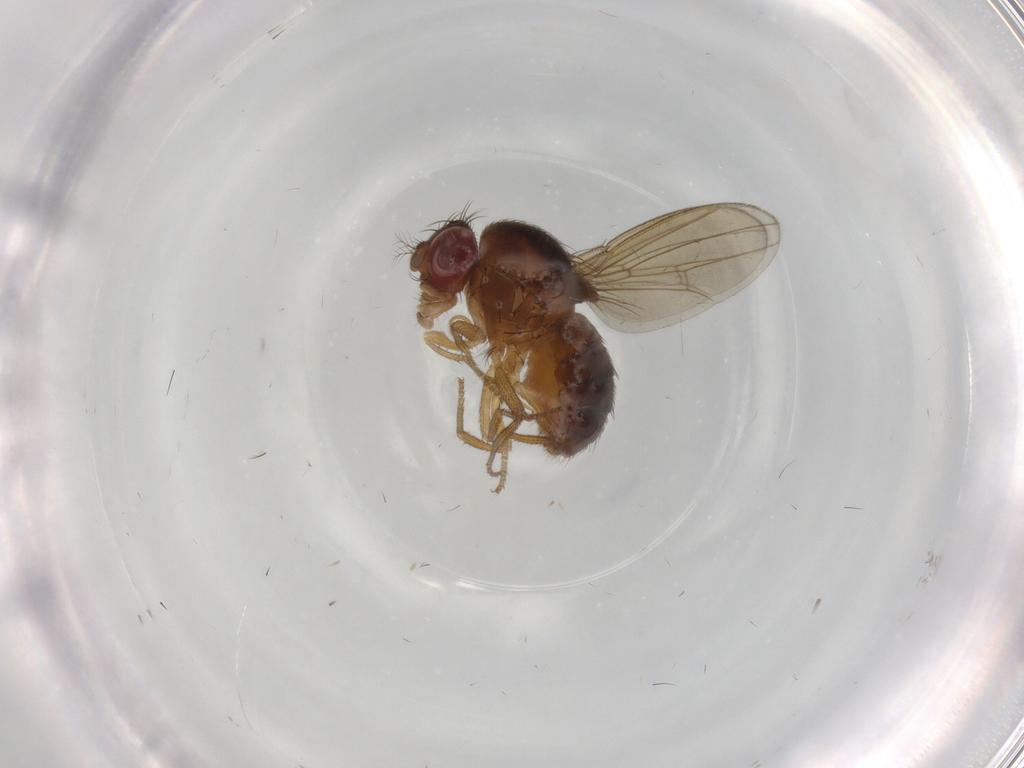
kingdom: Animalia
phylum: Arthropoda
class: Insecta
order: Diptera
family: Drosophilidae
